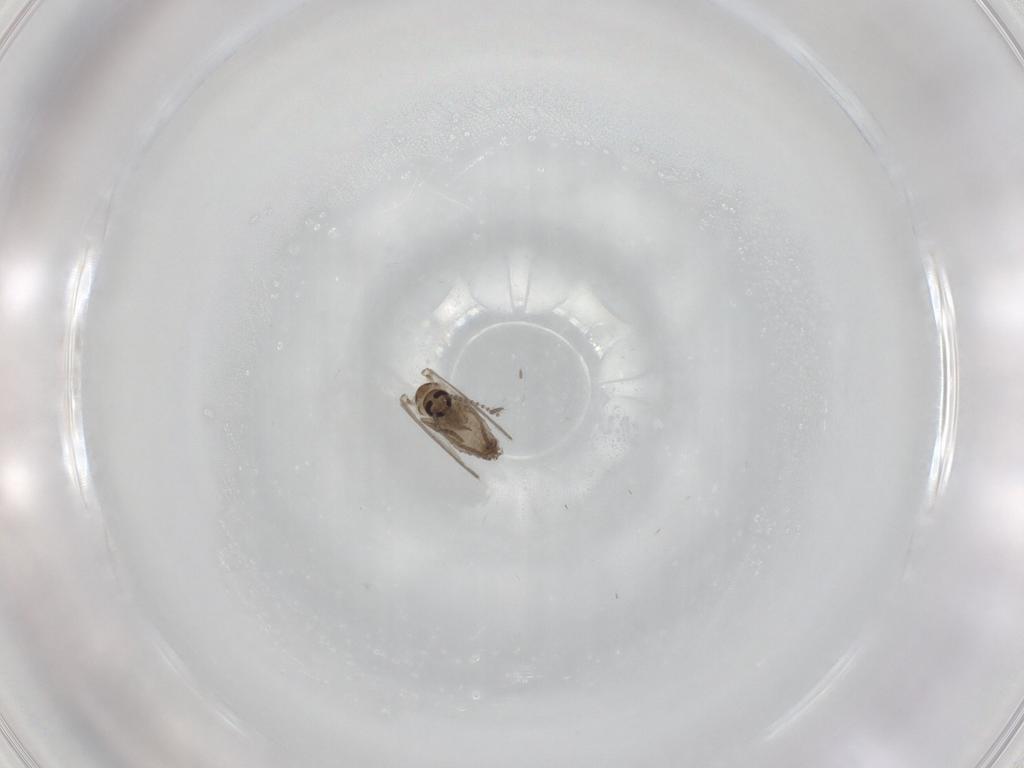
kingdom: Animalia
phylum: Arthropoda
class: Insecta
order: Diptera
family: Psychodidae
